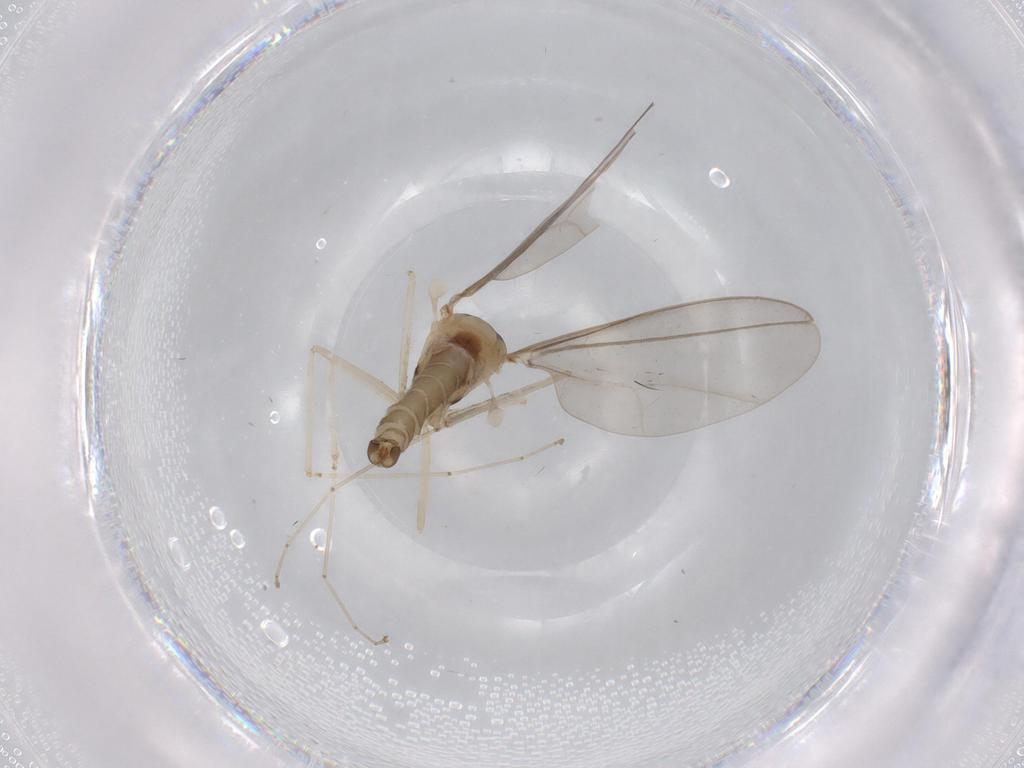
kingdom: Animalia
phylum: Arthropoda
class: Insecta
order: Diptera
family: Cecidomyiidae
